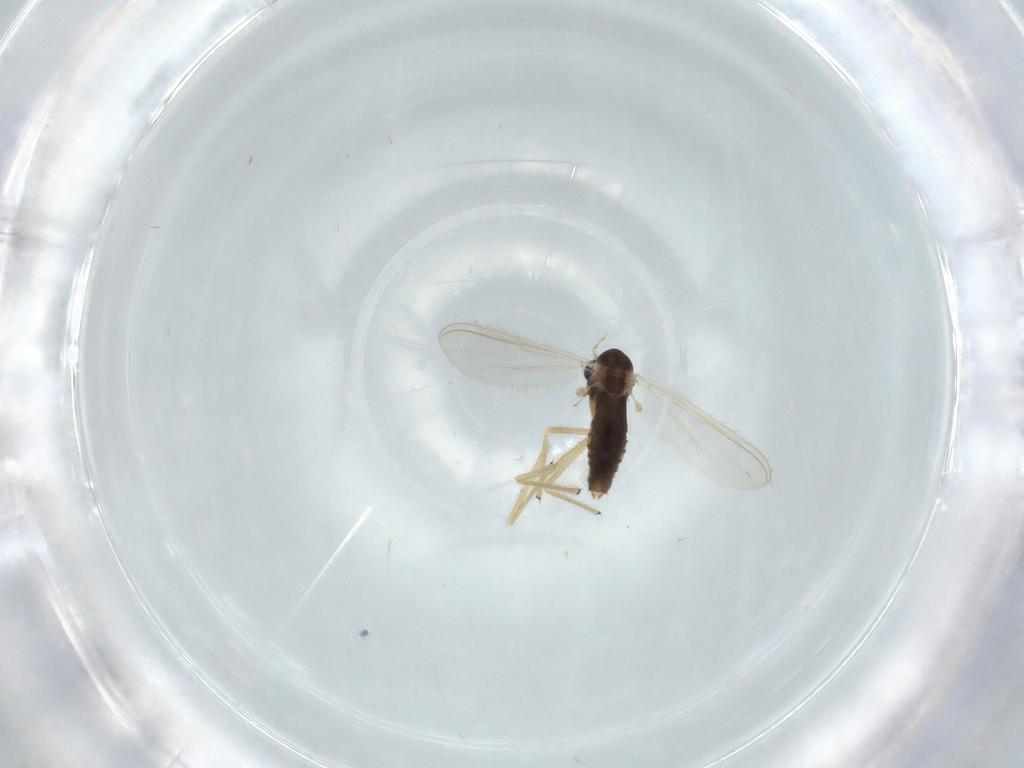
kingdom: Animalia
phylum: Arthropoda
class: Insecta
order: Diptera
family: Chironomidae
